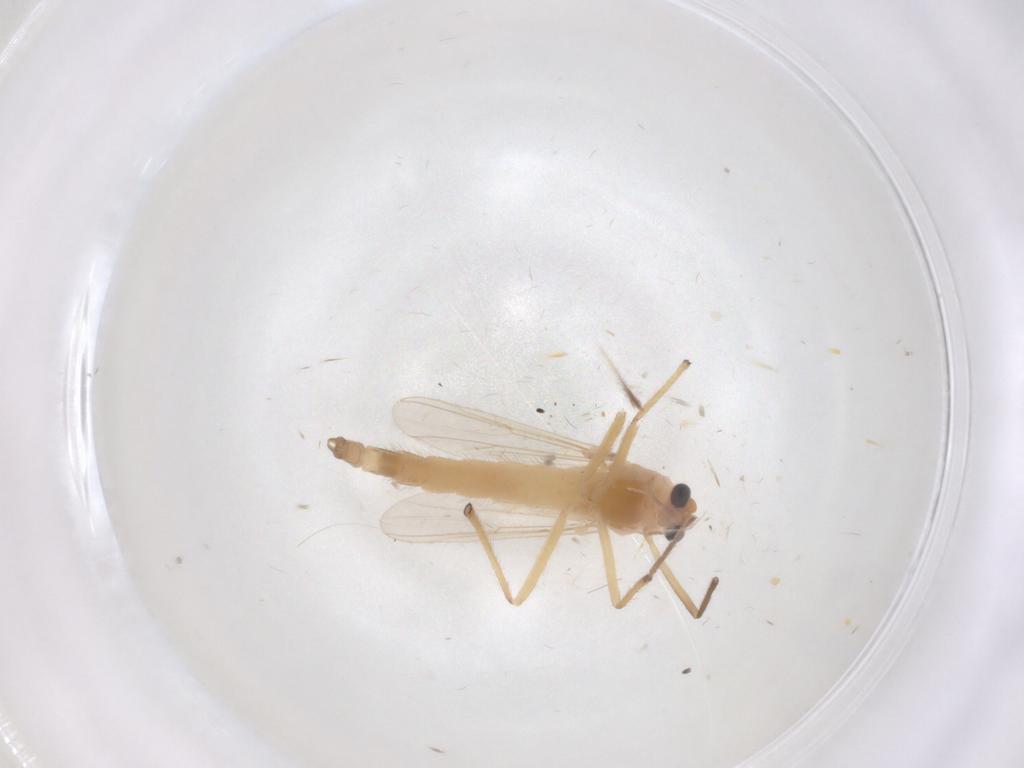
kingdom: Animalia
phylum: Arthropoda
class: Insecta
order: Diptera
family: Chironomidae
